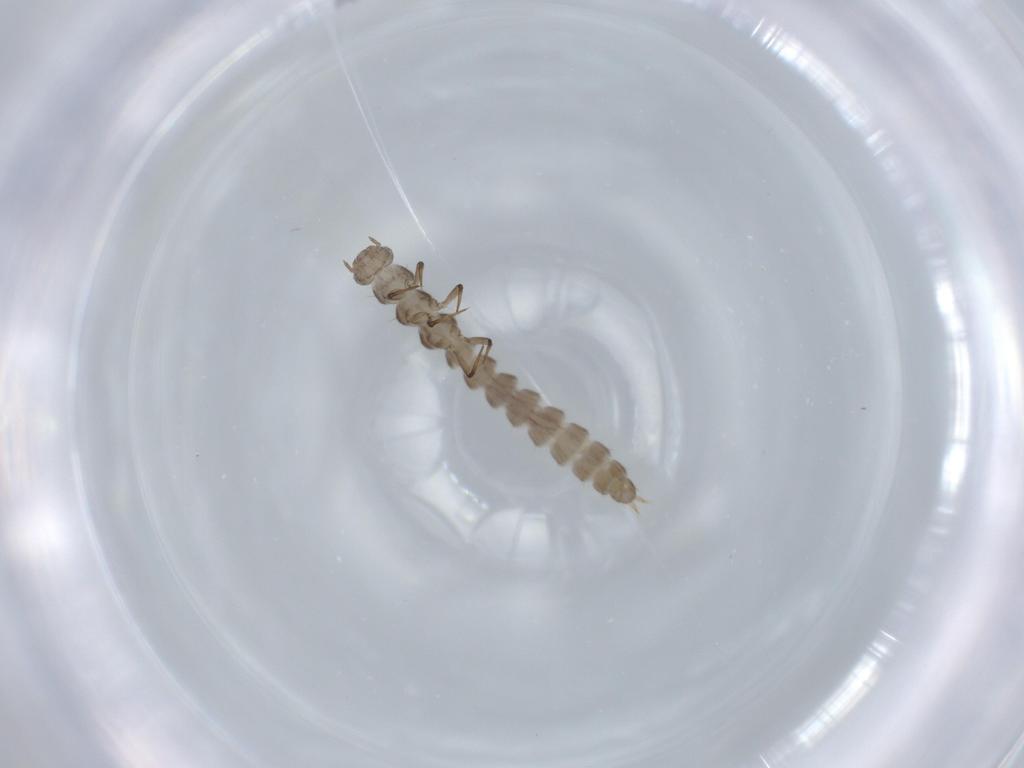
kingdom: Animalia
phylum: Arthropoda
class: Insecta
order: Coleoptera
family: Hydraenidae
